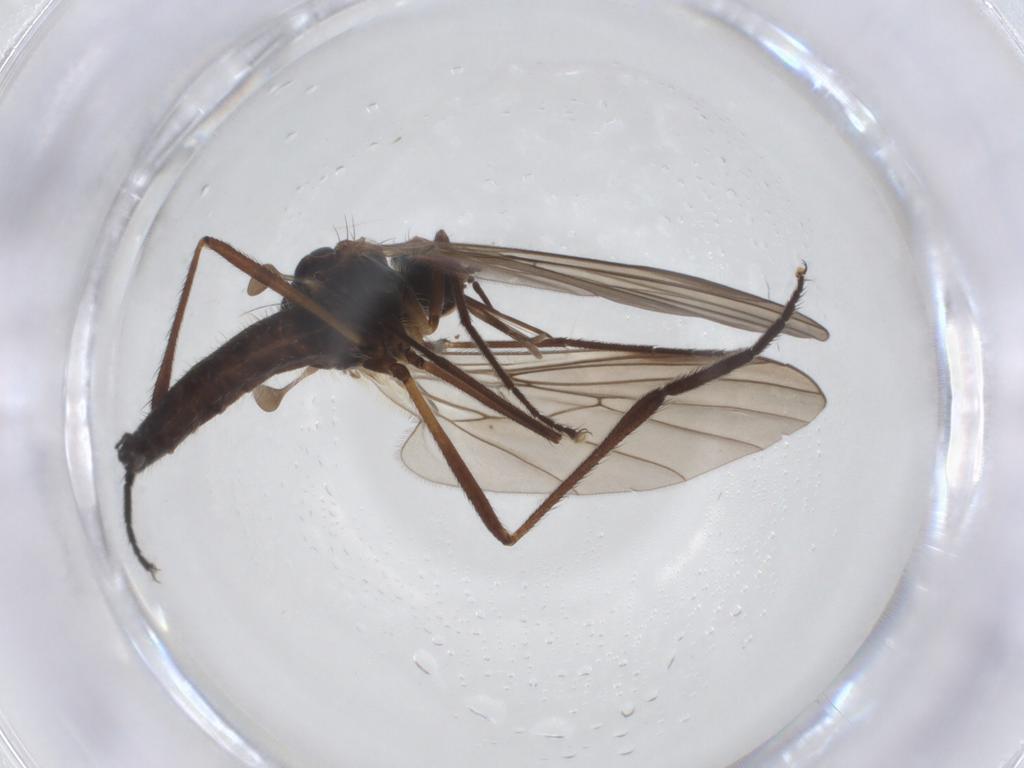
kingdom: Animalia
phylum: Arthropoda
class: Insecta
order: Diptera
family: Empididae
